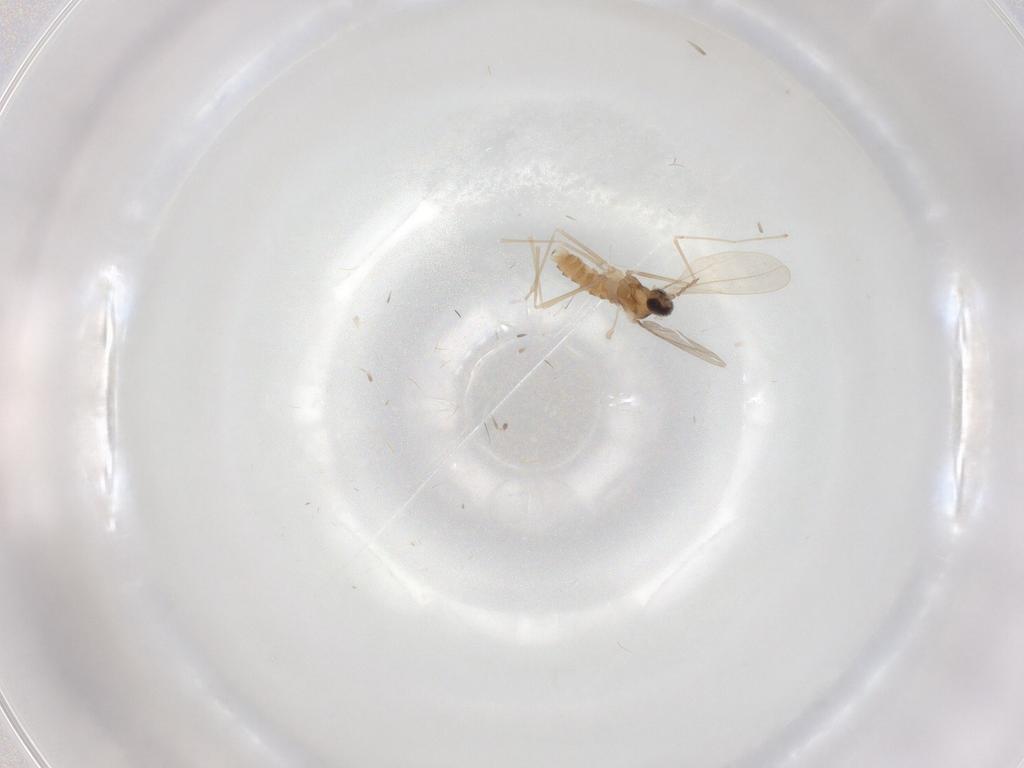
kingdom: Animalia
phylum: Arthropoda
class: Insecta
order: Diptera
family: Cecidomyiidae
